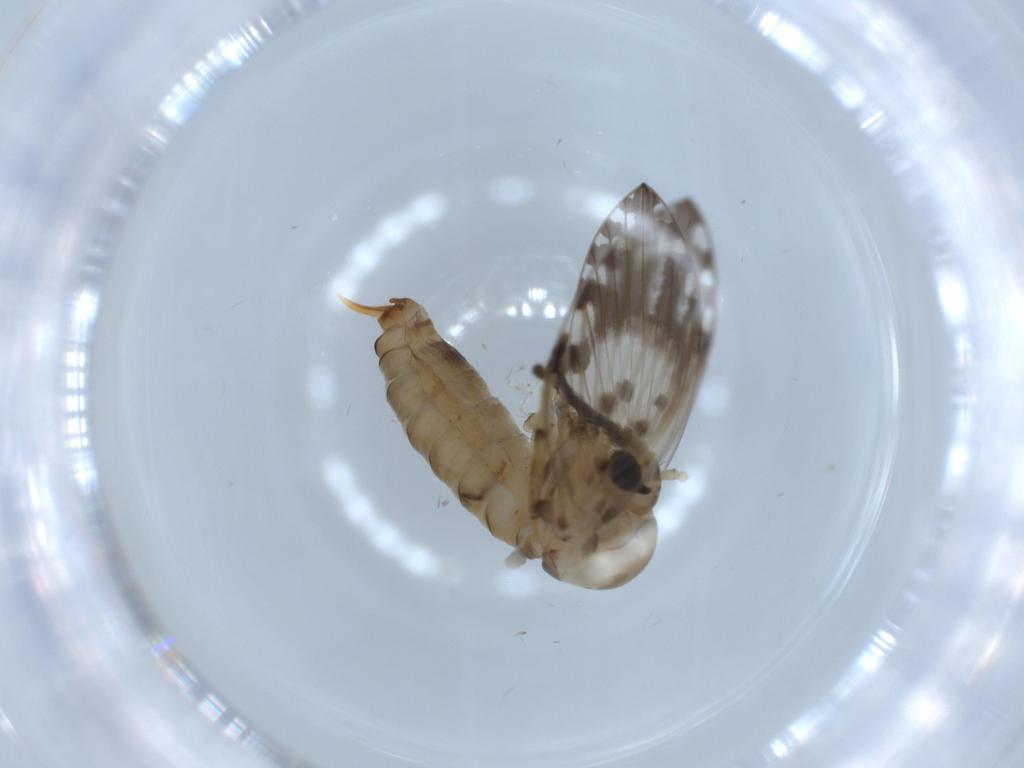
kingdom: Animalia
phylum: Arthropoda
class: Insecta
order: Diptera
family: Psychodidae
